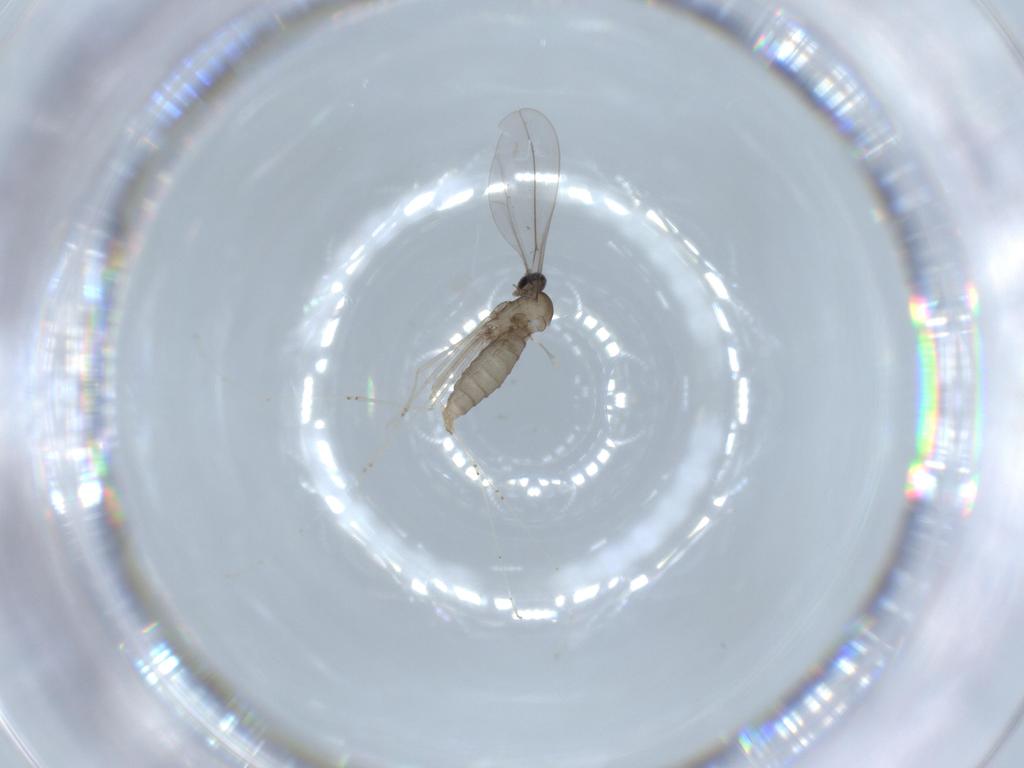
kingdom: Animalia
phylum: Arthropoda
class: Insecta
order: Diptera
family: Cecidomyiidae
